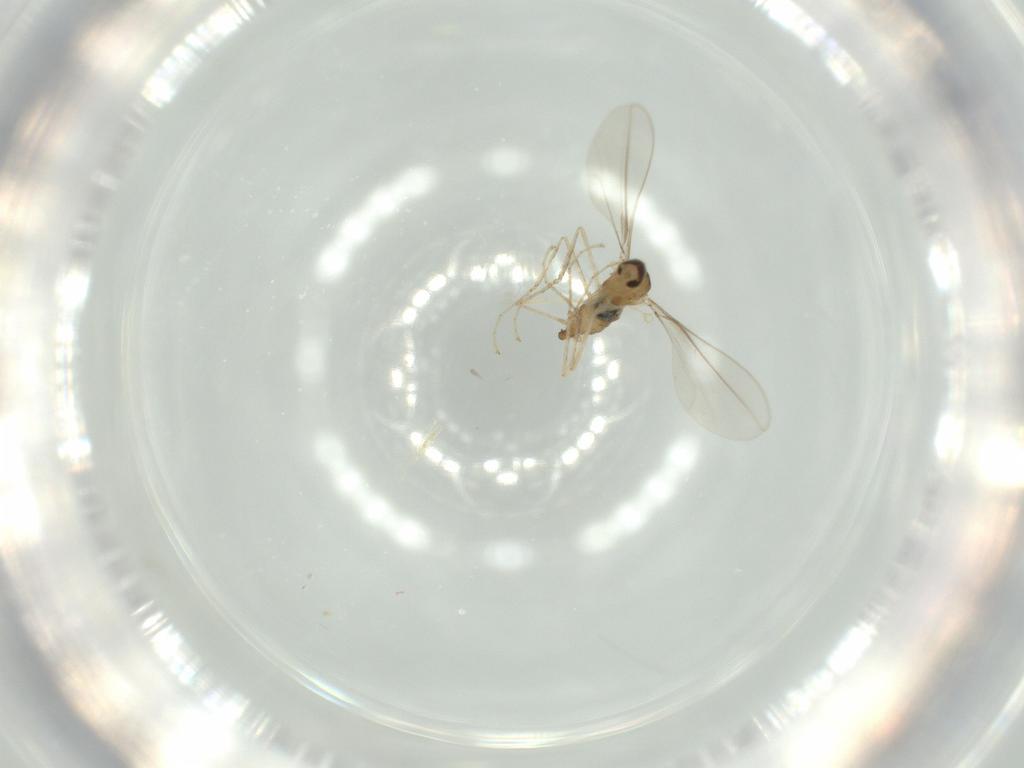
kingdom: Animalia
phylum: Arthropoda
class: Insecta
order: Diptera
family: Cecidomyiidae
